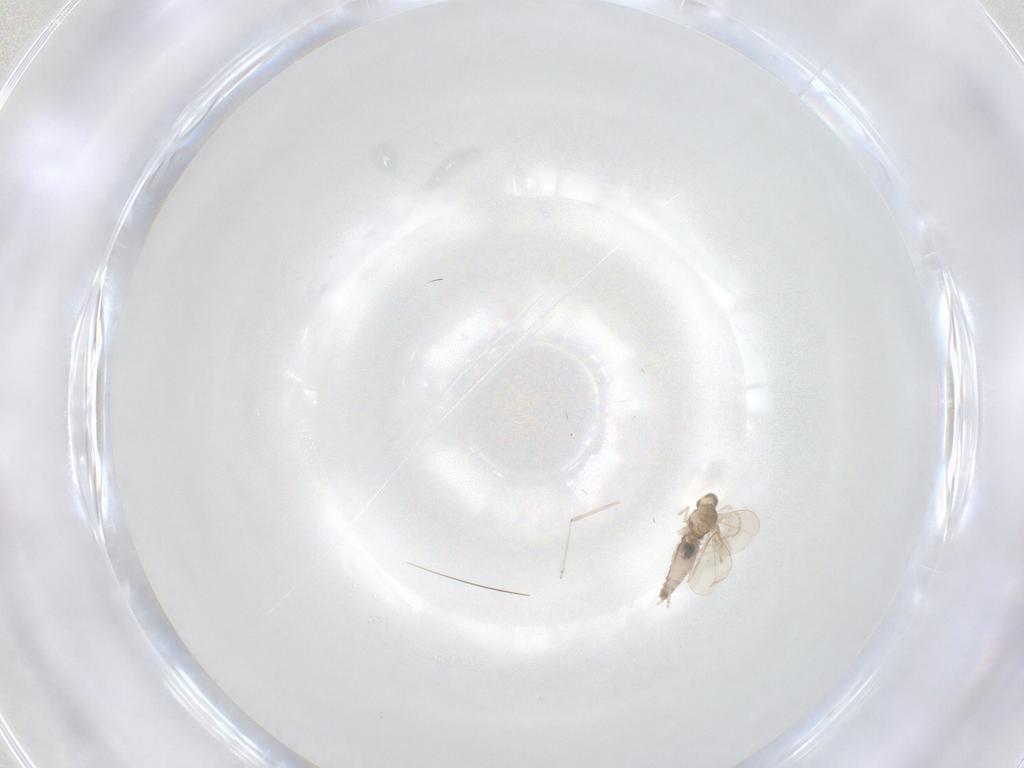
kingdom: Animalia
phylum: Arthropoda
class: Insecta
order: Diptera
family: Cecidomyiidae
